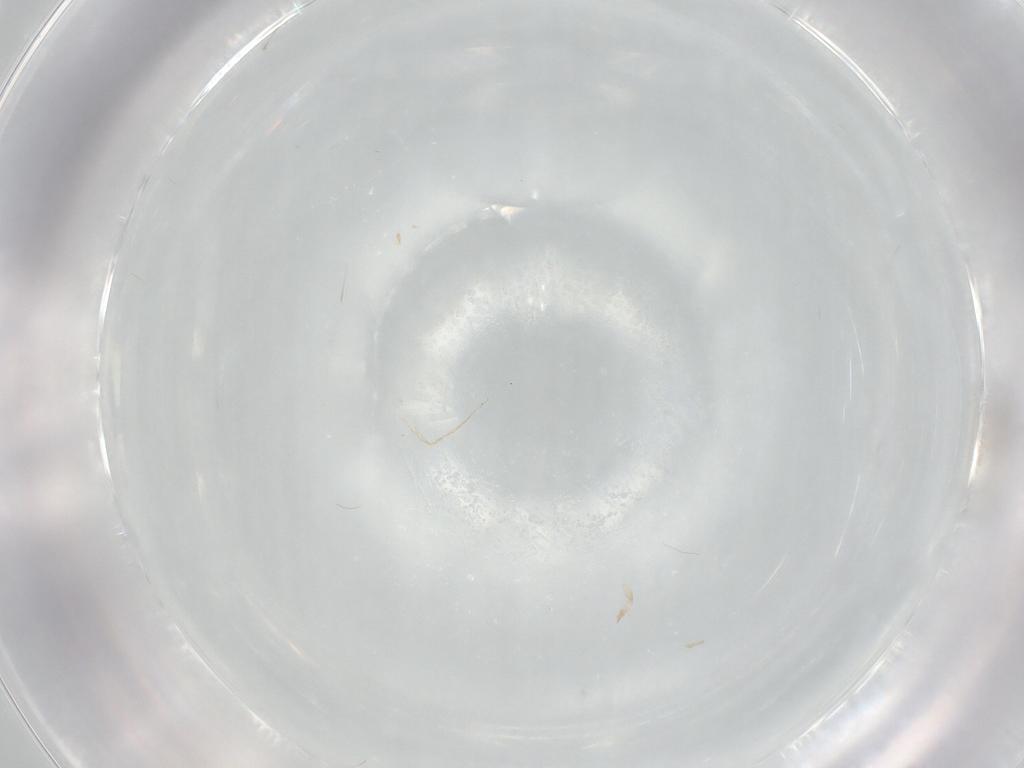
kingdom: Animalia
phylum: Arthropoda
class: Insecta
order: Diptera
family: Anthomyiidae
